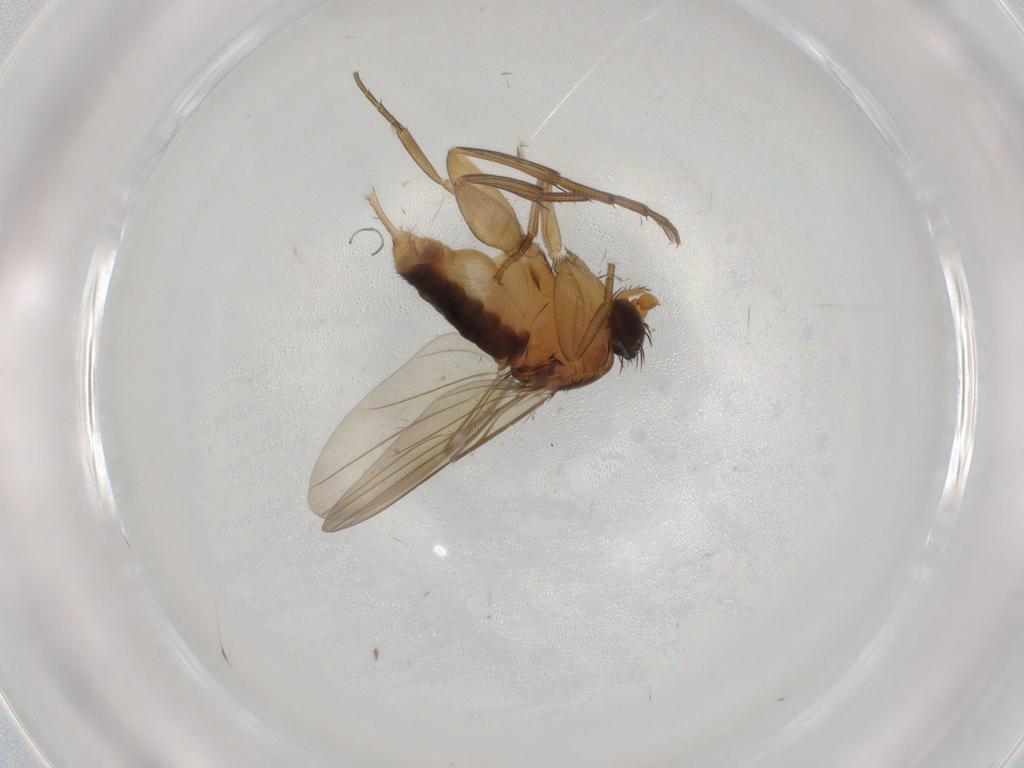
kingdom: Animalia
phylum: Arthropoda
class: Insecta
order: Diptera
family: Phoridae
